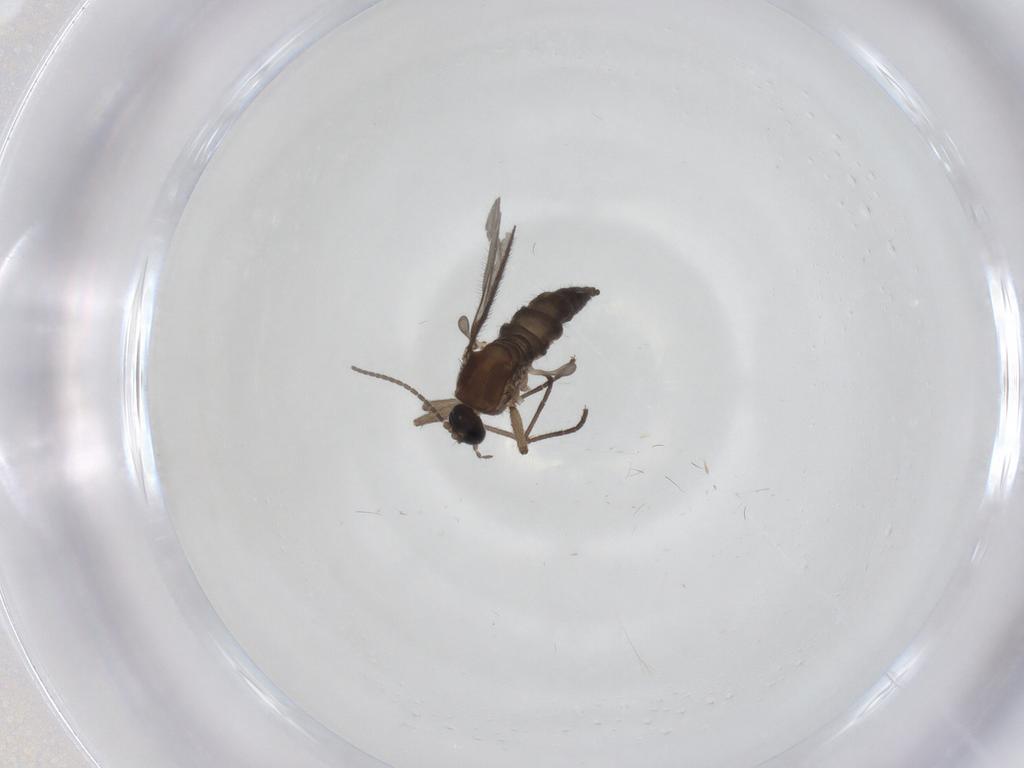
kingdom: Animalia
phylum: Arthropoda
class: Insecta
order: Diptera
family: Sciaridae
